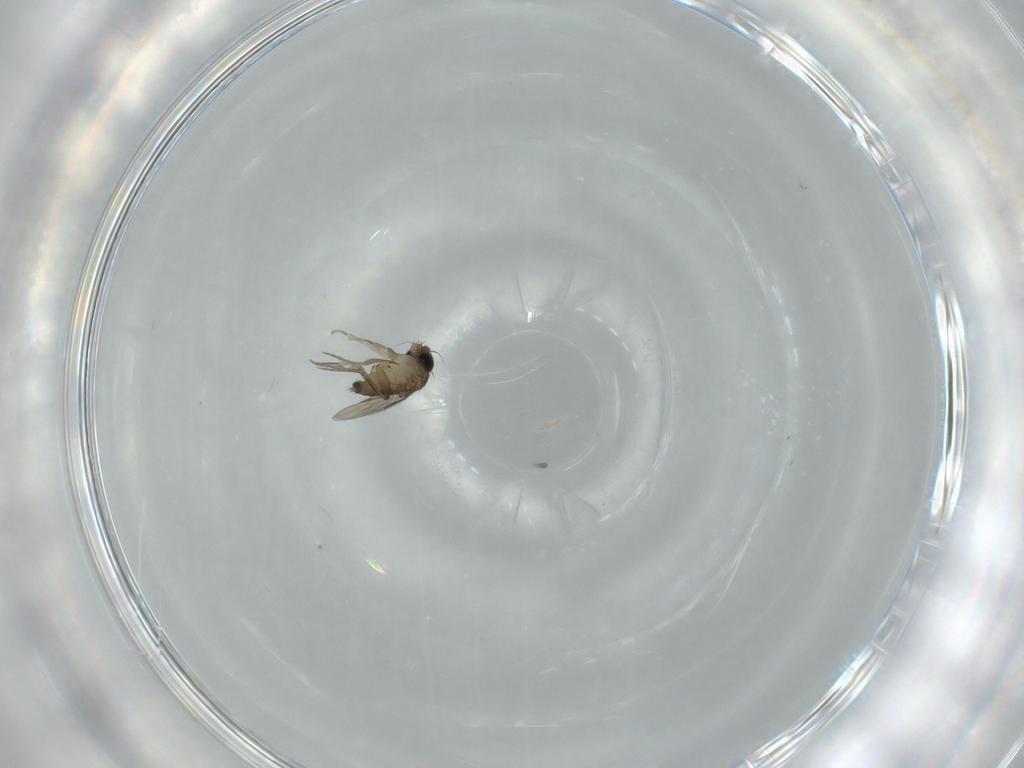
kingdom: Animalia
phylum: Arthropoda
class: Insecta
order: Diptera
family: Phoridae
